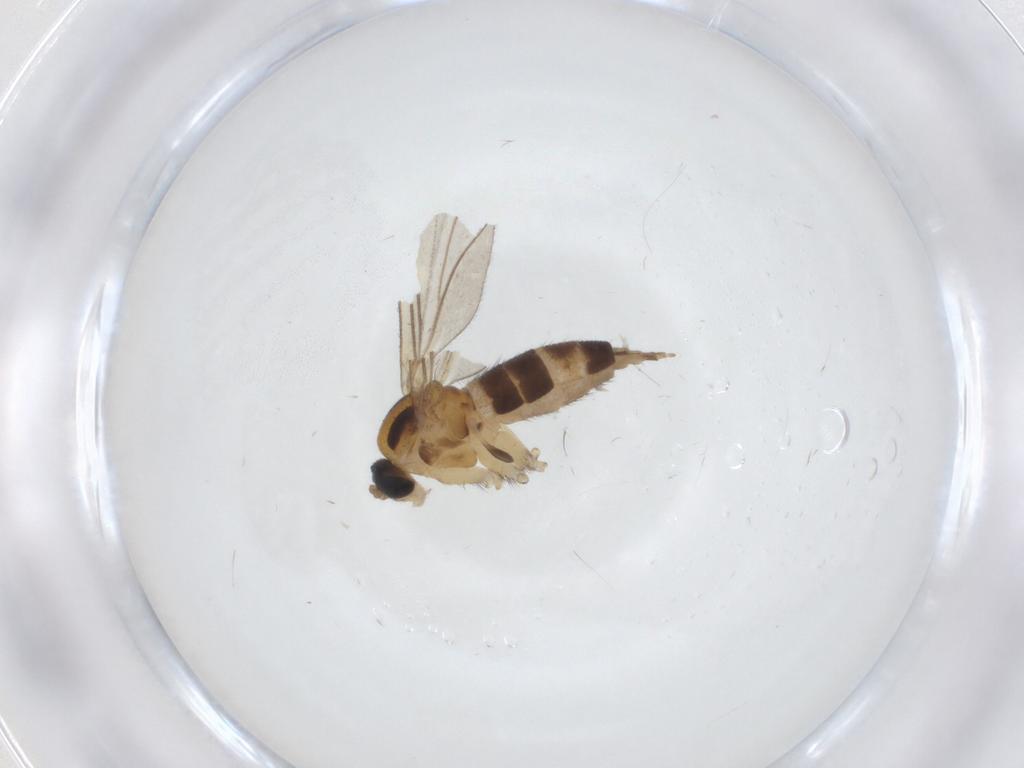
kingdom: Animalia
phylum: Arthropoda
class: Insecta
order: Diptera
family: Sciaridae
